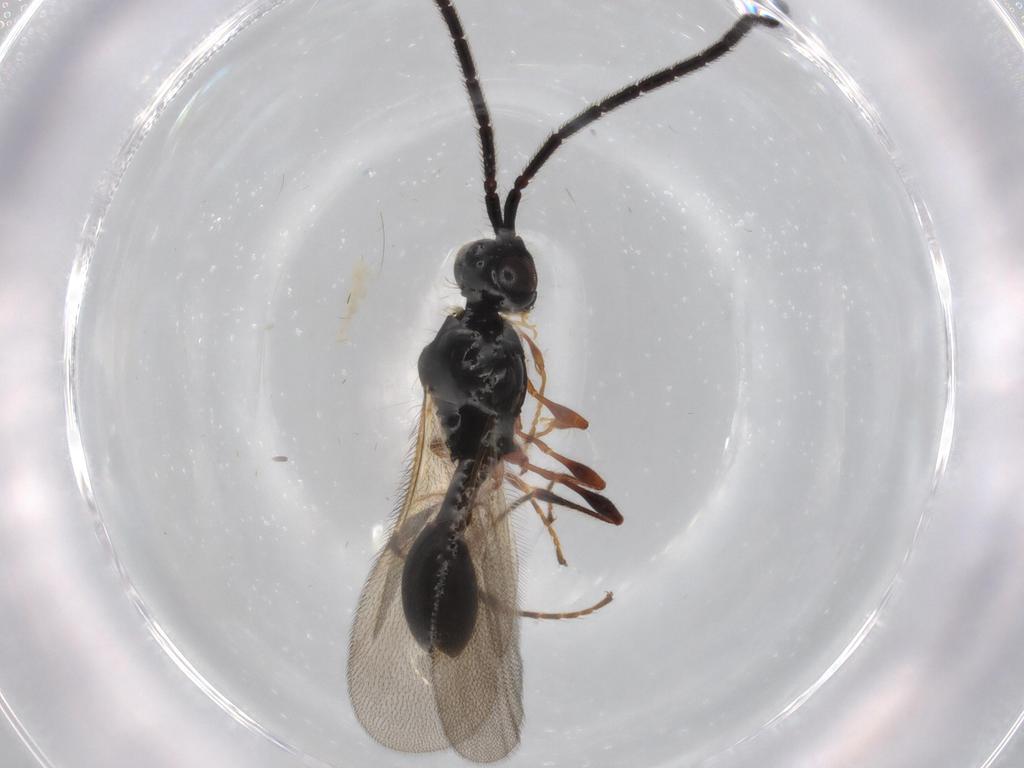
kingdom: Animalia
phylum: Arthropoda
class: Insecta
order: Hymenoptera
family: Diapriidae
